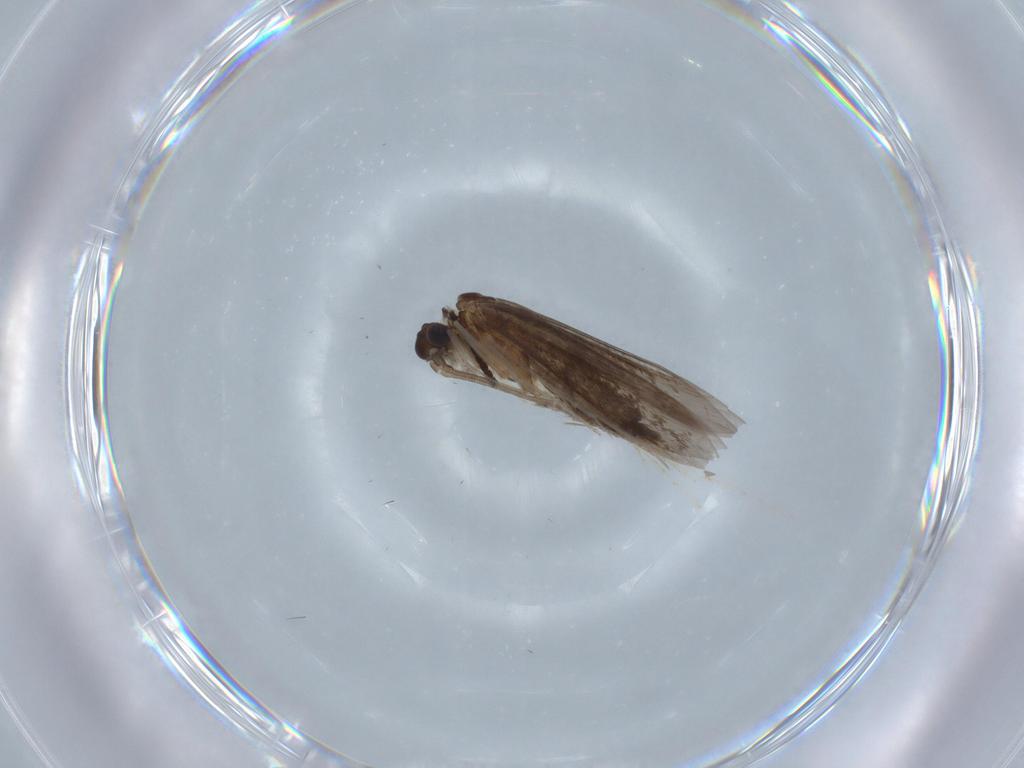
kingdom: Animalia
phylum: Arthropoda
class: Insecta
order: Trichoptera
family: Xiphocentronidae
